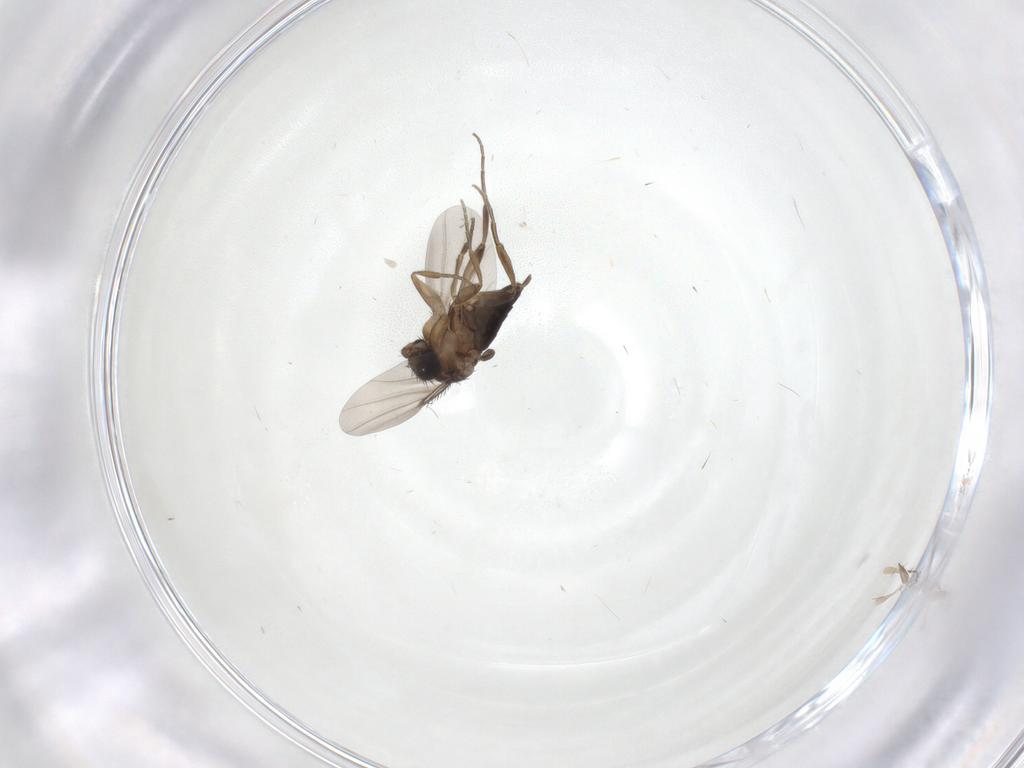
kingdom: Animalia
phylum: Arthropoda
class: Insecta
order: Diptera
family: Phoridae
